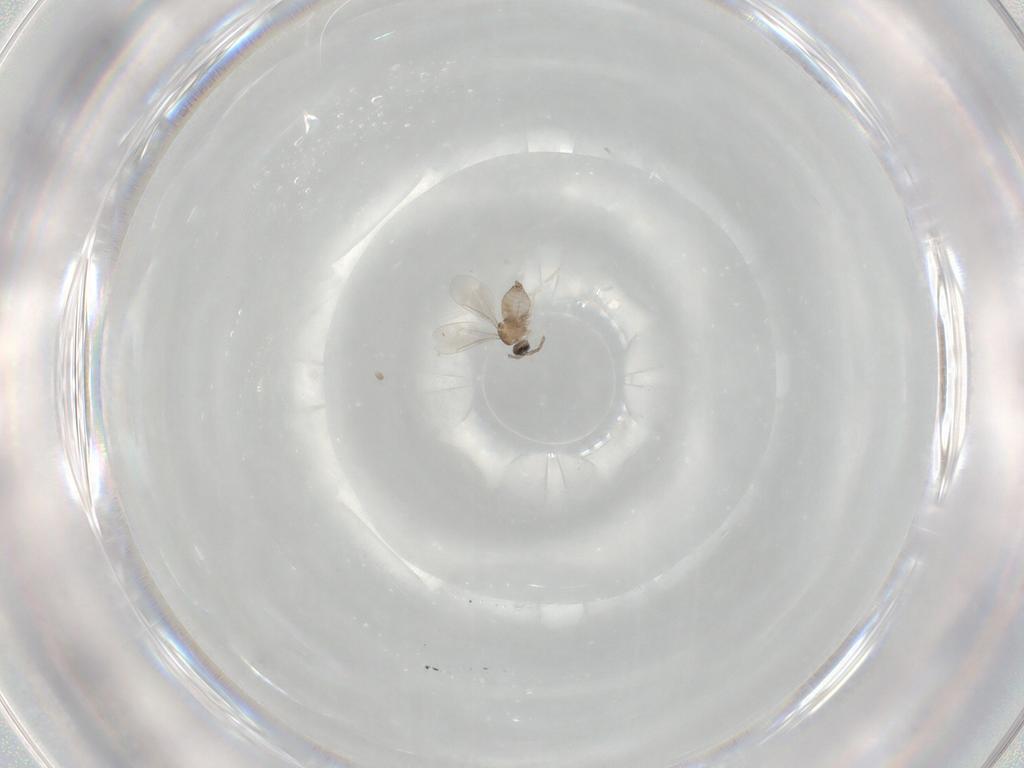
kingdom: Animalia
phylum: Arthropoda
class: Insecta
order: Diptera
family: Cecidomyiidae
